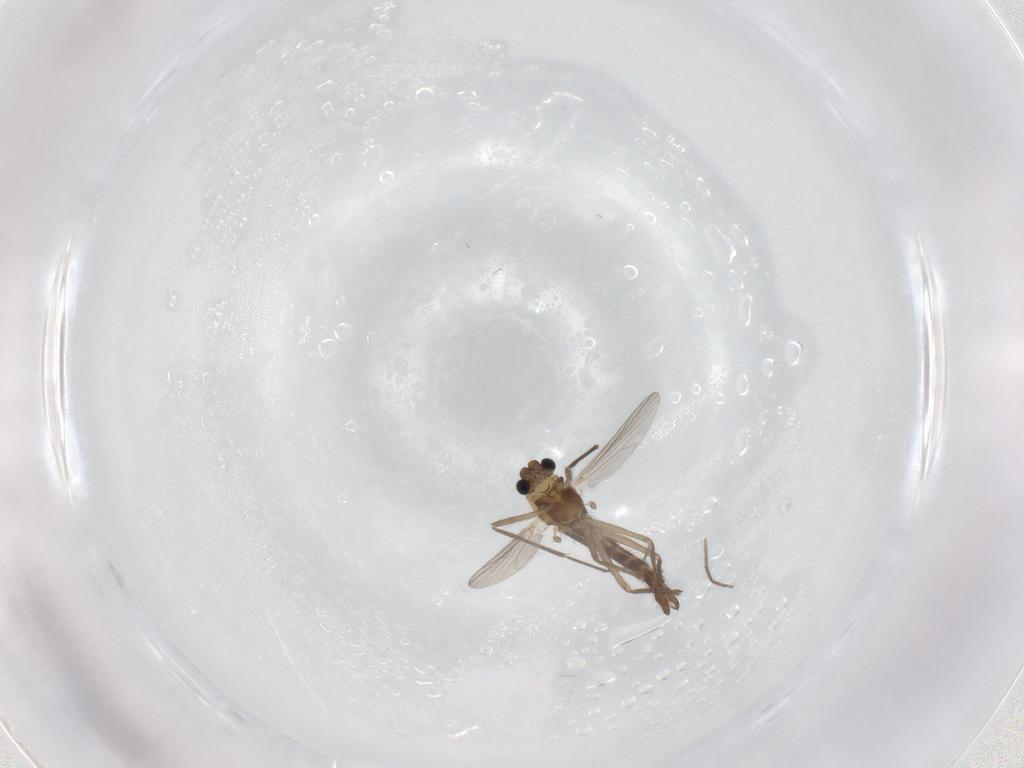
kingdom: Animalia
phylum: Arthropoda
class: Insecta
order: Diptera
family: Chironomidae
